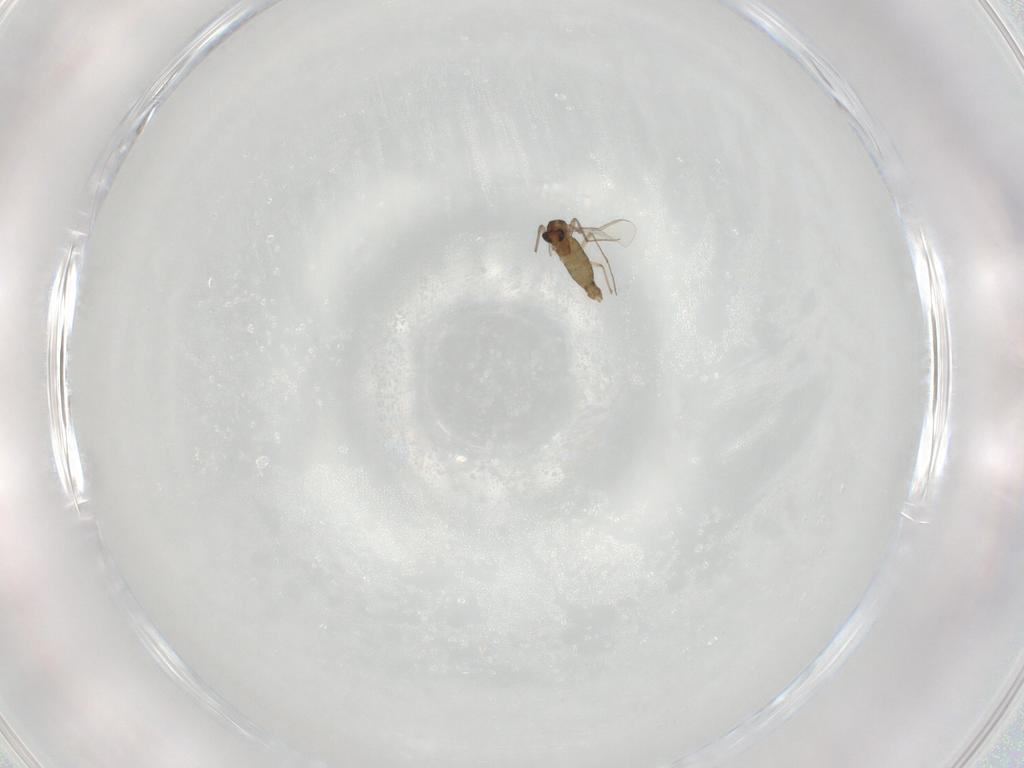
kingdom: Animalia
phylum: Arthropoda
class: Insecta
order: Diptera
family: Chironomidae
